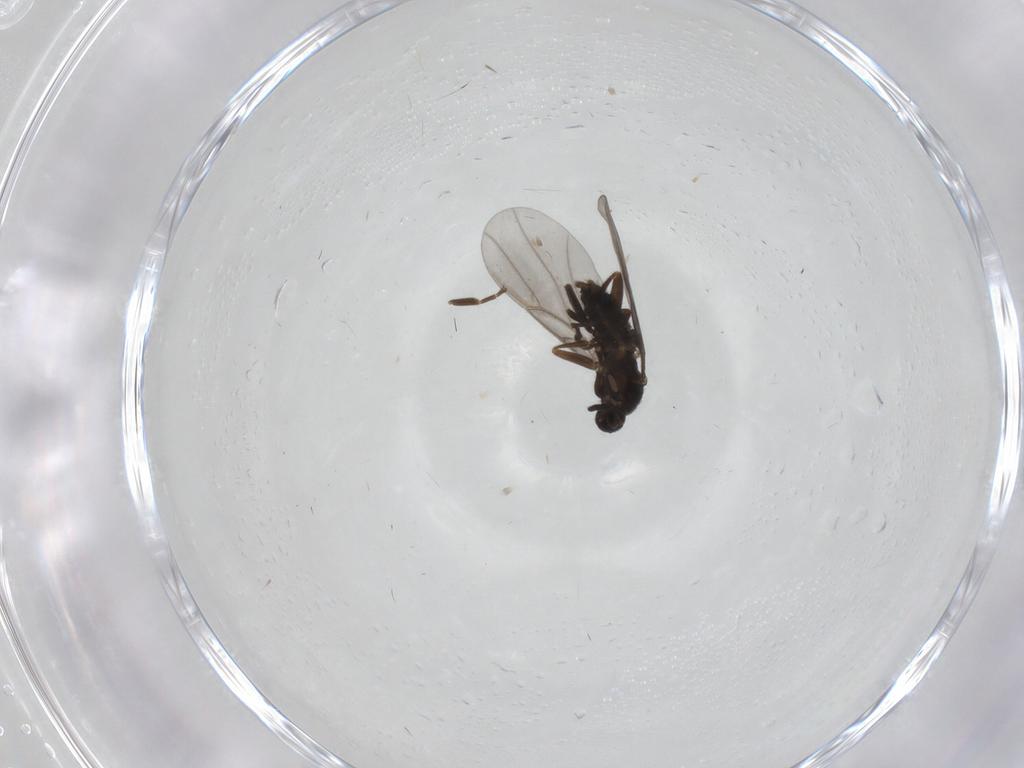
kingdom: Animalia
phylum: Arthropoda
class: Insecta
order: Diptera
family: Phoridae
